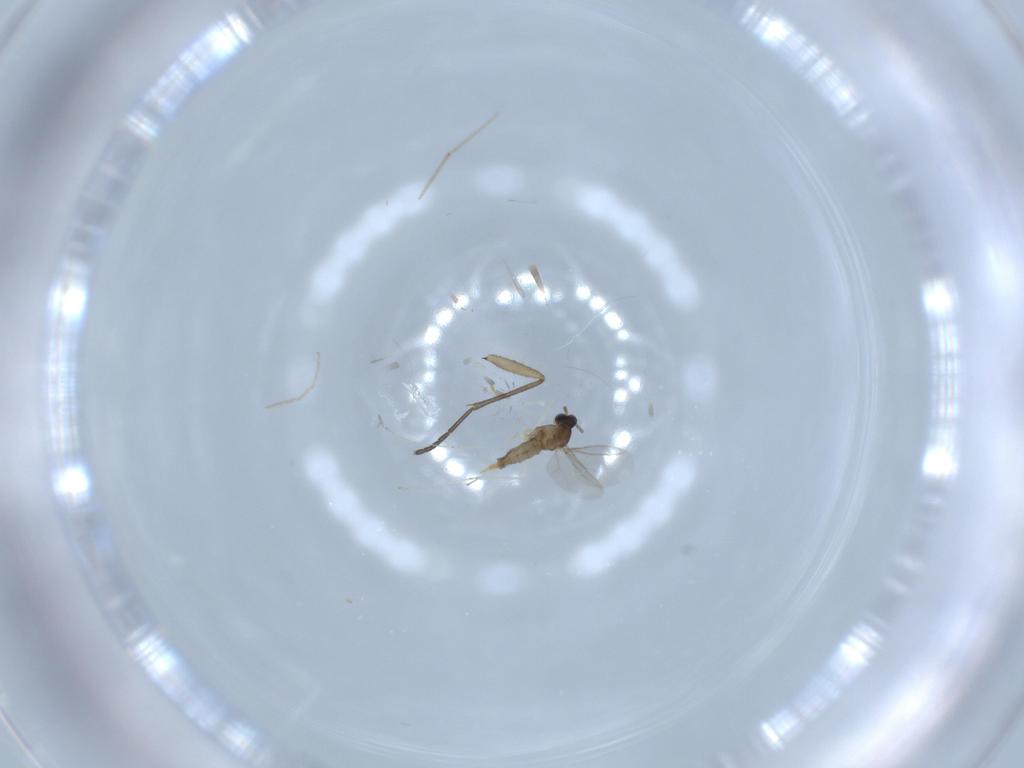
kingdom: Animalia
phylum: Arthropoda
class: Insecta
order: Diptera
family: Cecidomyiidae
